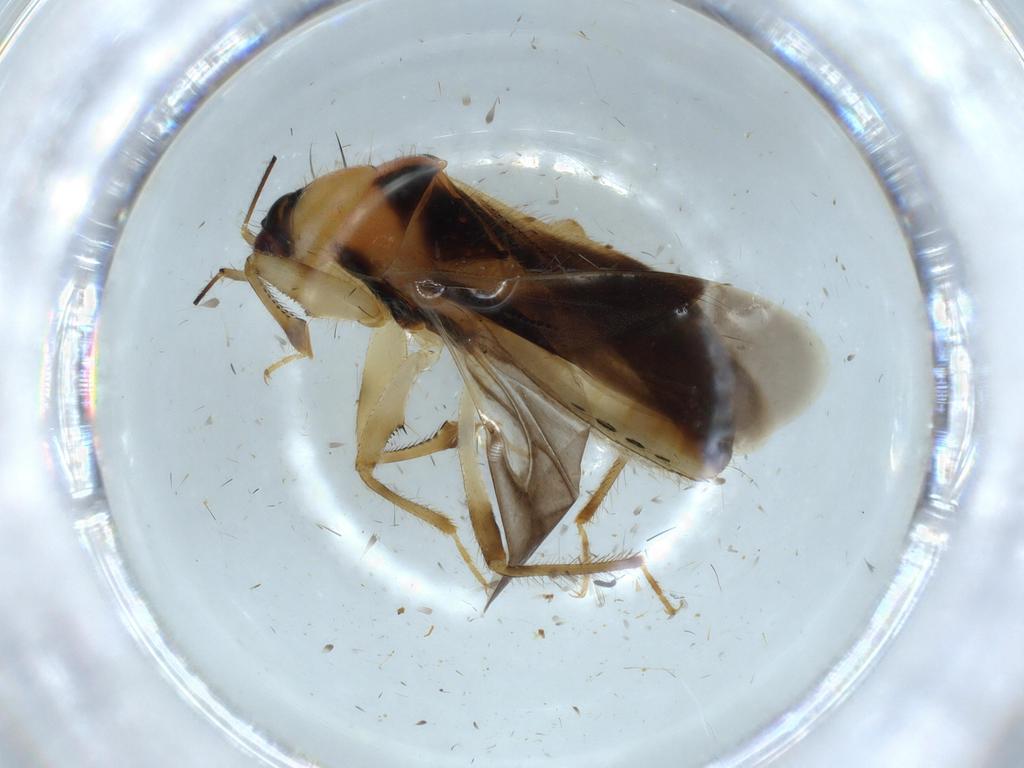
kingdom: Animalia
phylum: Arthropoda
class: Insecta
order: Hemiptera
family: Nabidae
